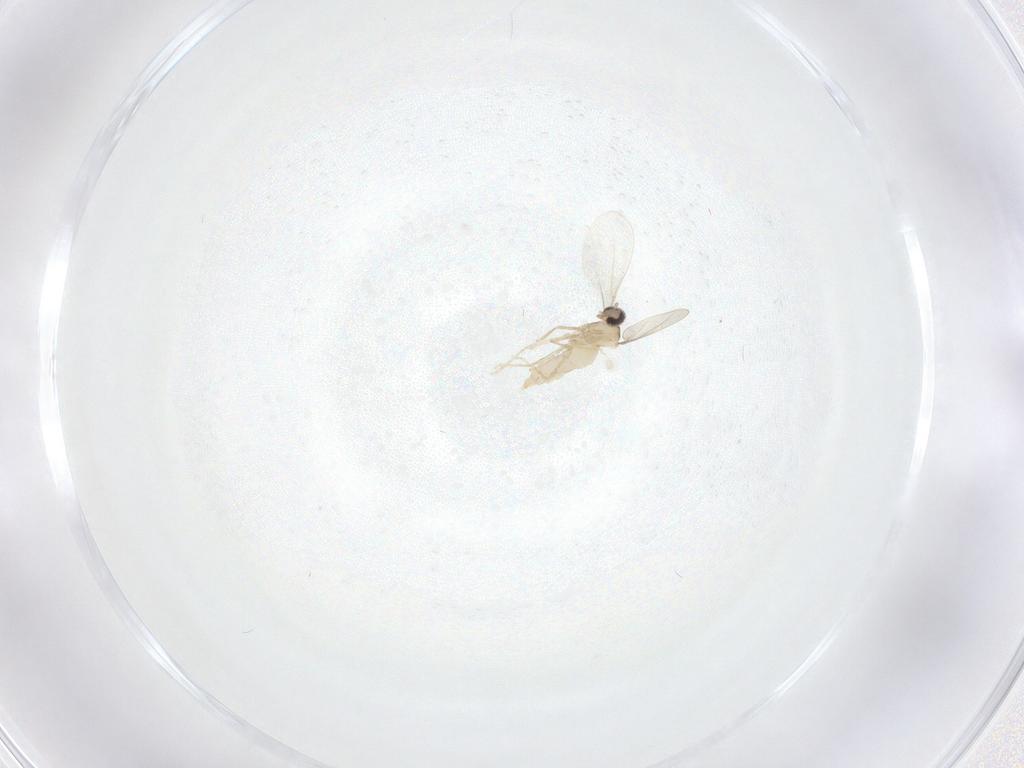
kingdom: Animalia
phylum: Arthropoda
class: Insecta
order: Diptera
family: Cecidomyiidae
